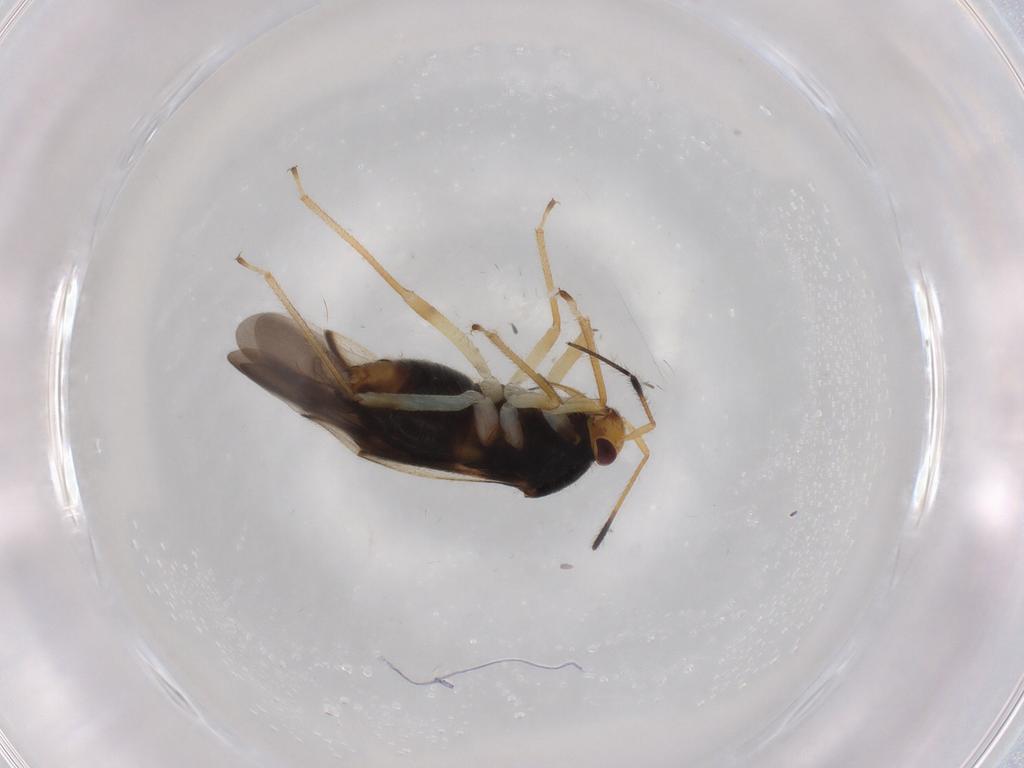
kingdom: Animalia
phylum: Arthropoda
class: Insecta
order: Hemiptera
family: Miridae
